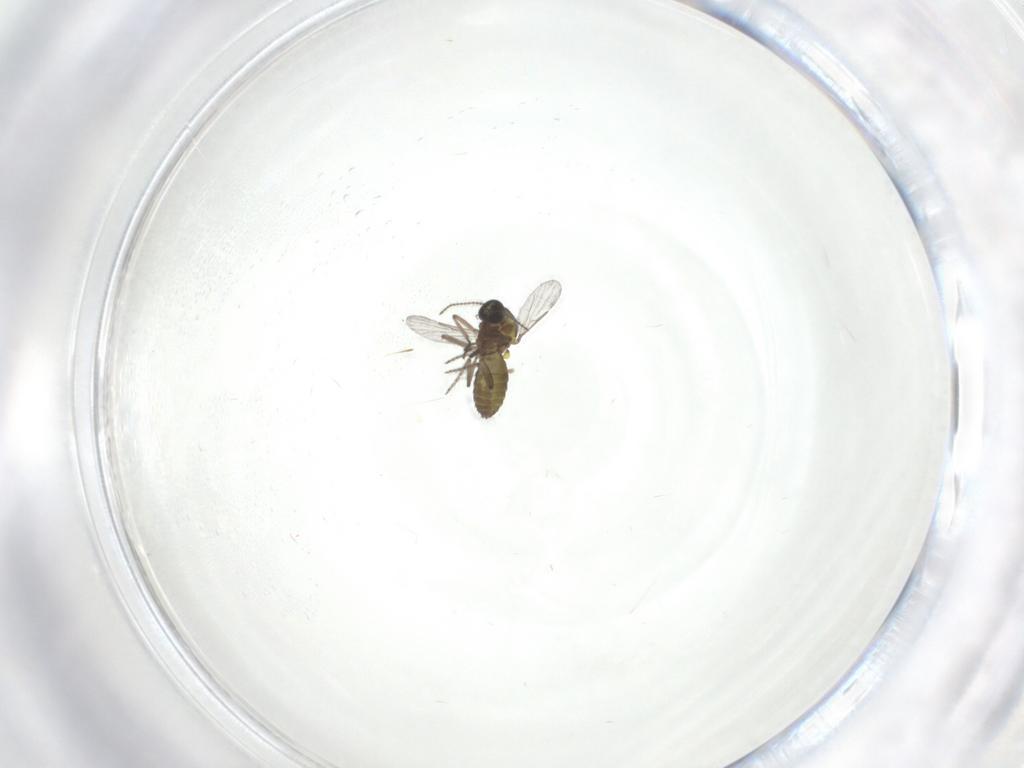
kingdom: Animalia
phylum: Arthropoda
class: Insecta
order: Diptera
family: Ceratopogonidae
